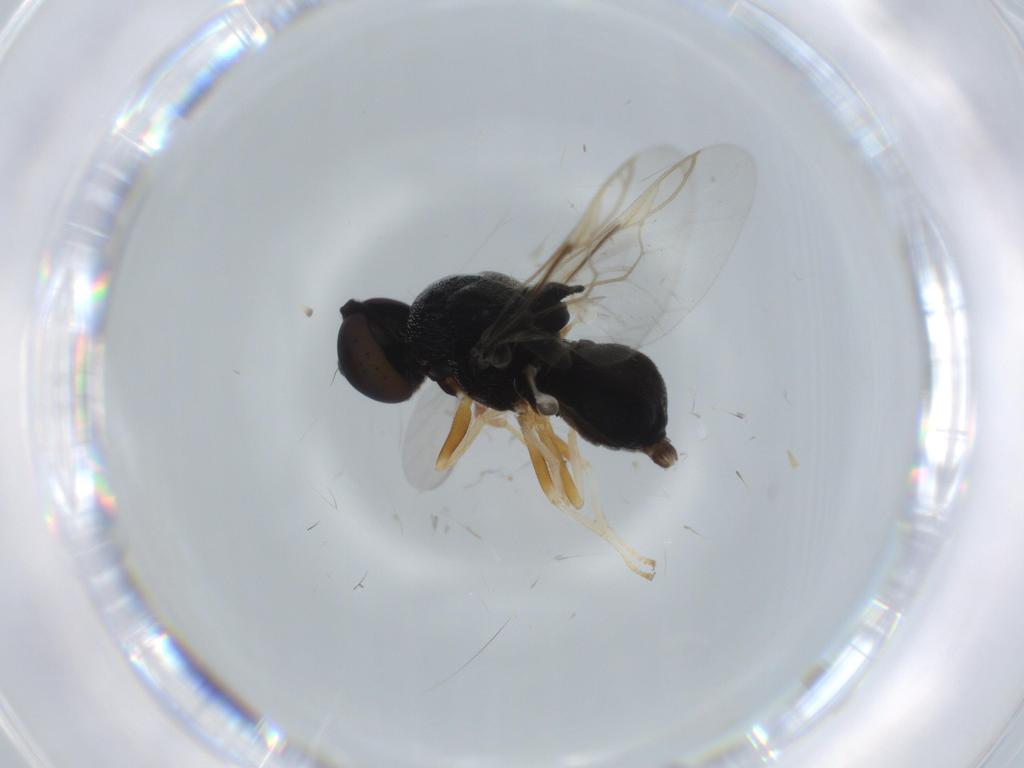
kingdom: Animalia
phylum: Arthropoda
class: Insecta
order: Diptera
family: Stratiomyidae
